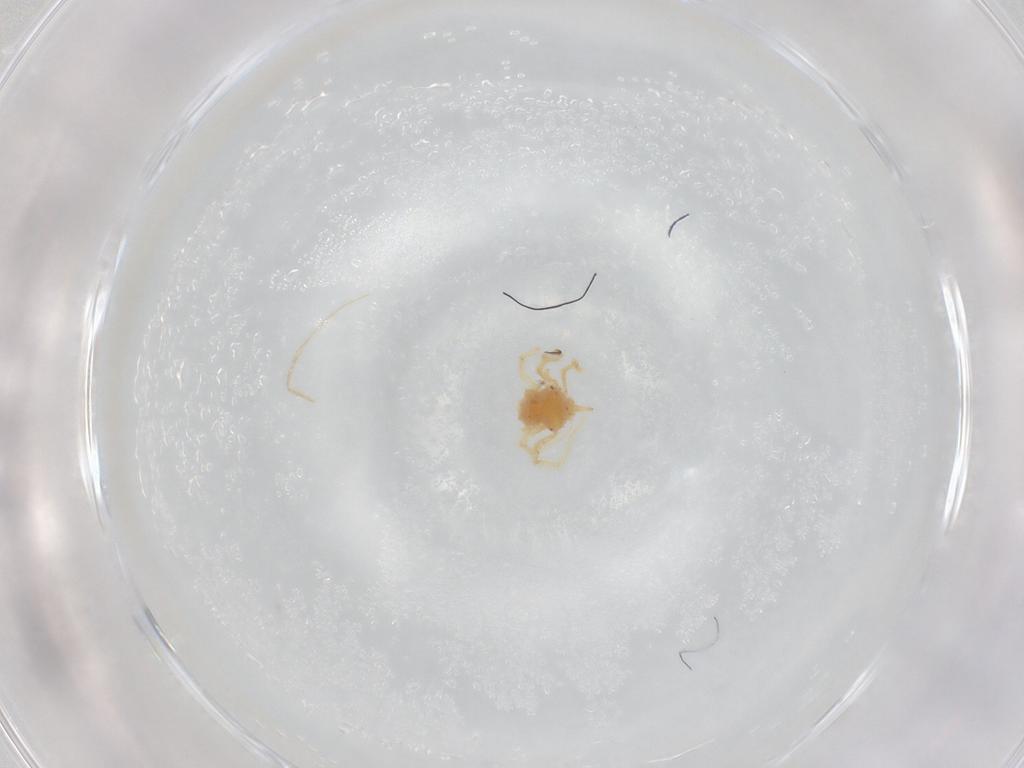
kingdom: Animalia
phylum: Arthropoda
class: Arachnida
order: Trombidiformes
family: Anystidae
